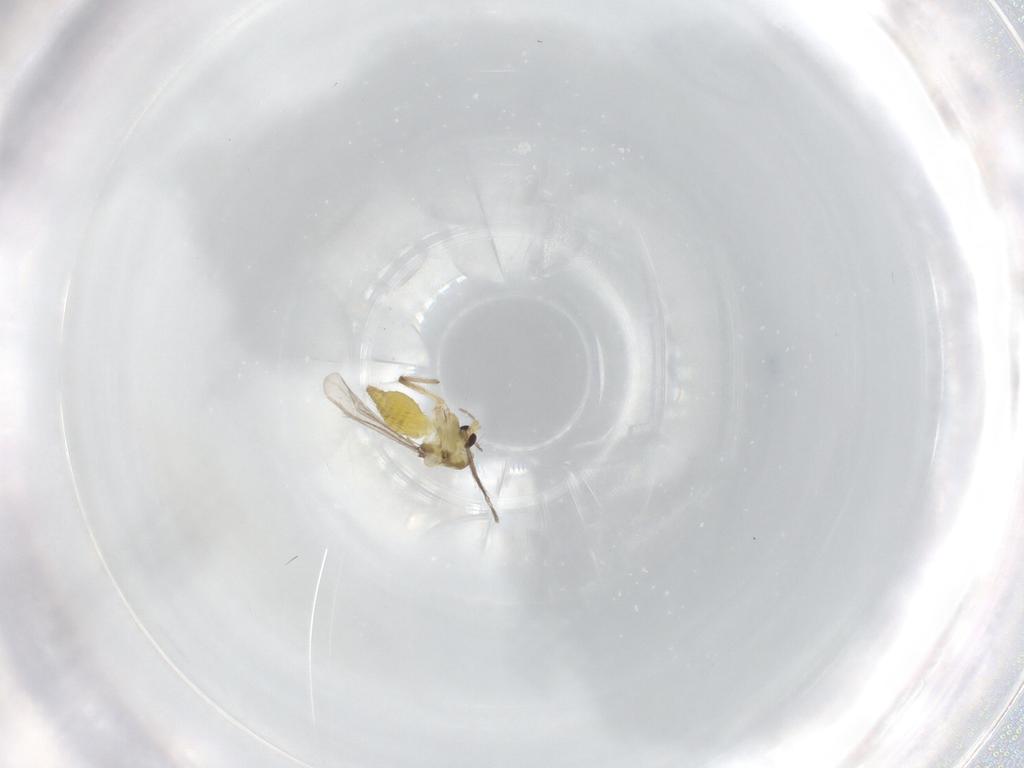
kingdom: Animalia
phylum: Arthropoda
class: Insecta
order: Diptera
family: Chironomidae
